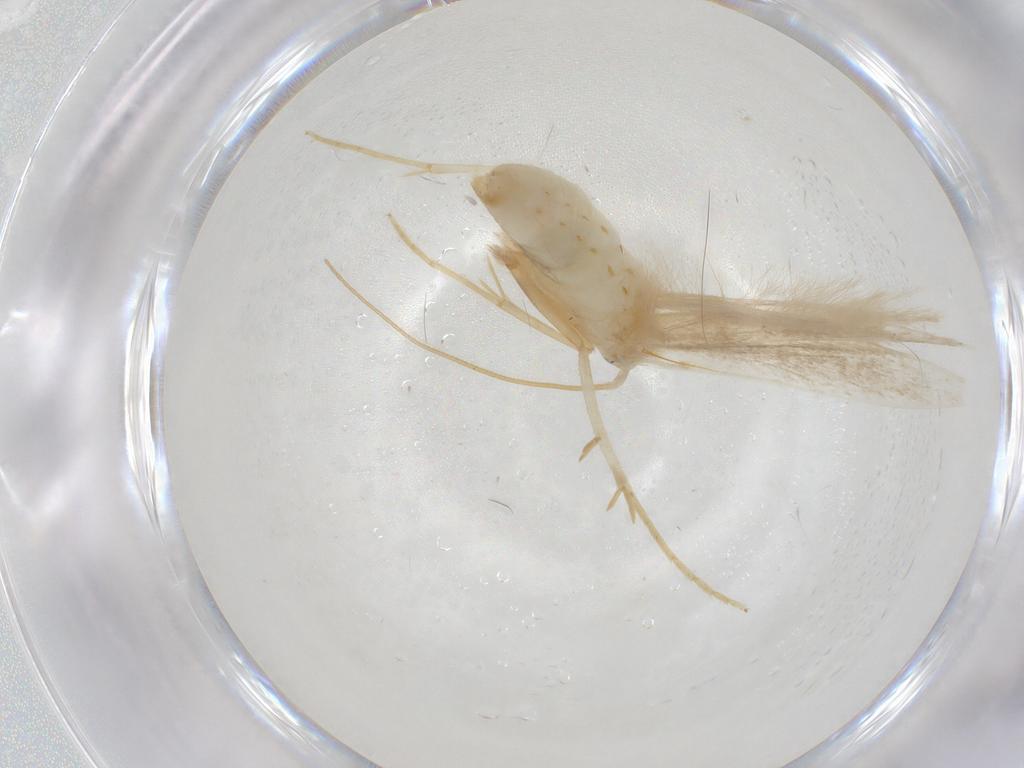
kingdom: Animalia
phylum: Arthropoda
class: Insecta
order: Lepidoptera
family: Coleophoridae
